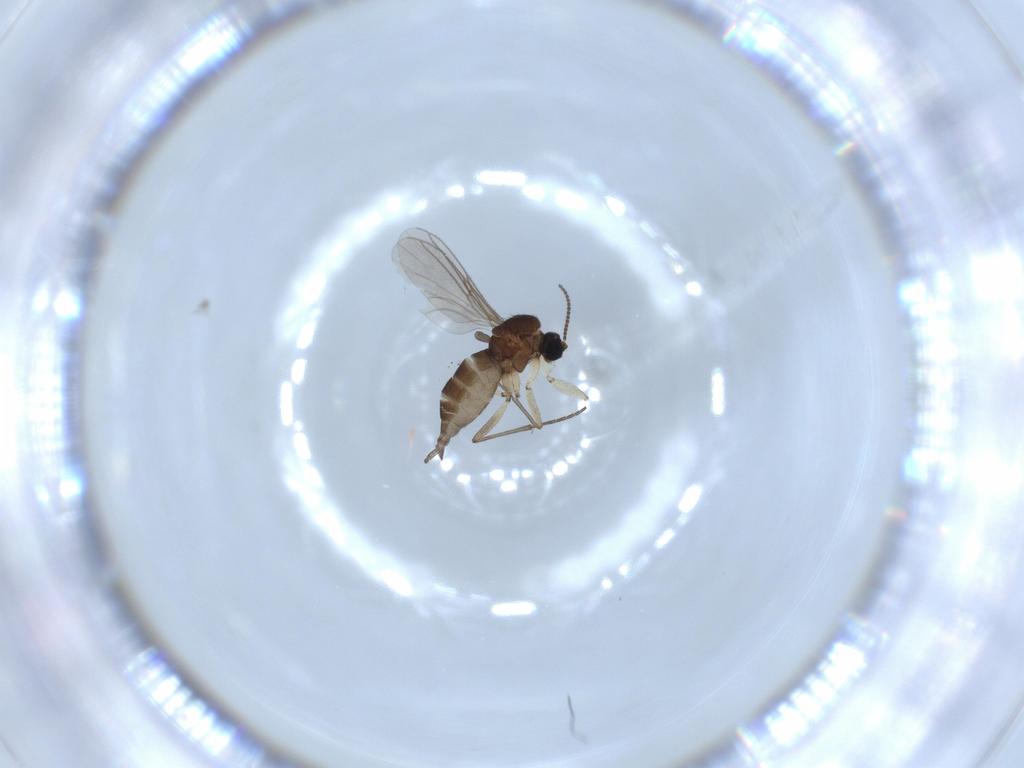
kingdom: Animalia
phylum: Arthropoda
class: Insecta
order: Diptera
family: Sciaridae
